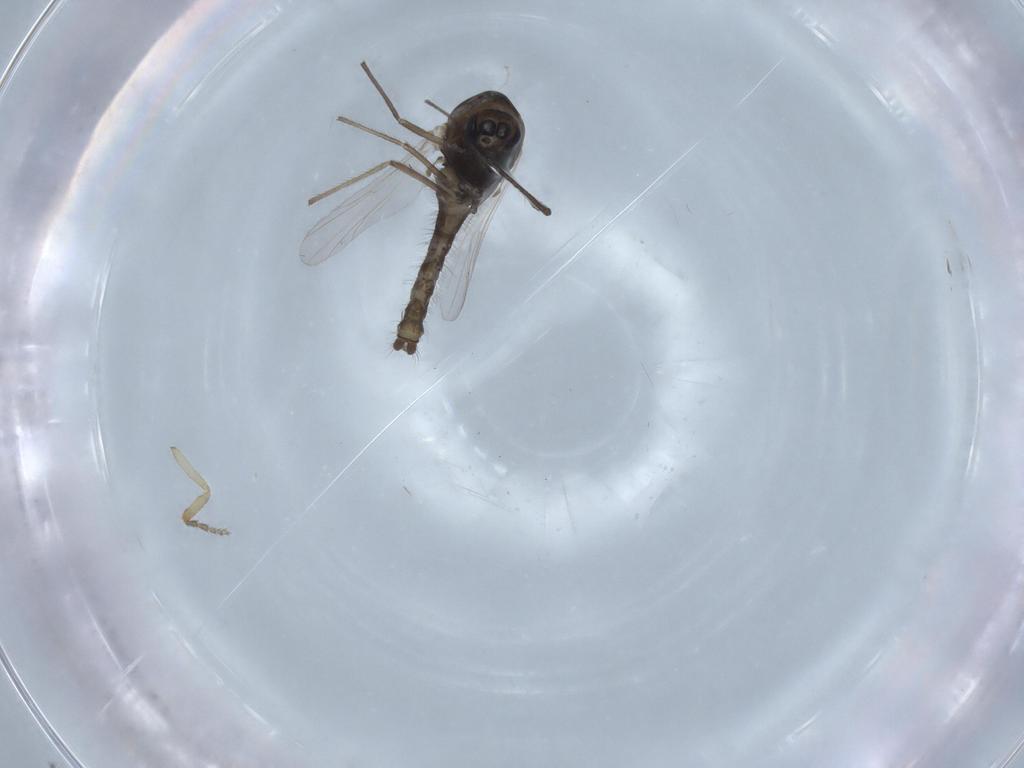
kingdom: Animalia
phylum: Arthropoda
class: Insecta
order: Diptera
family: Cecidomyiidae
